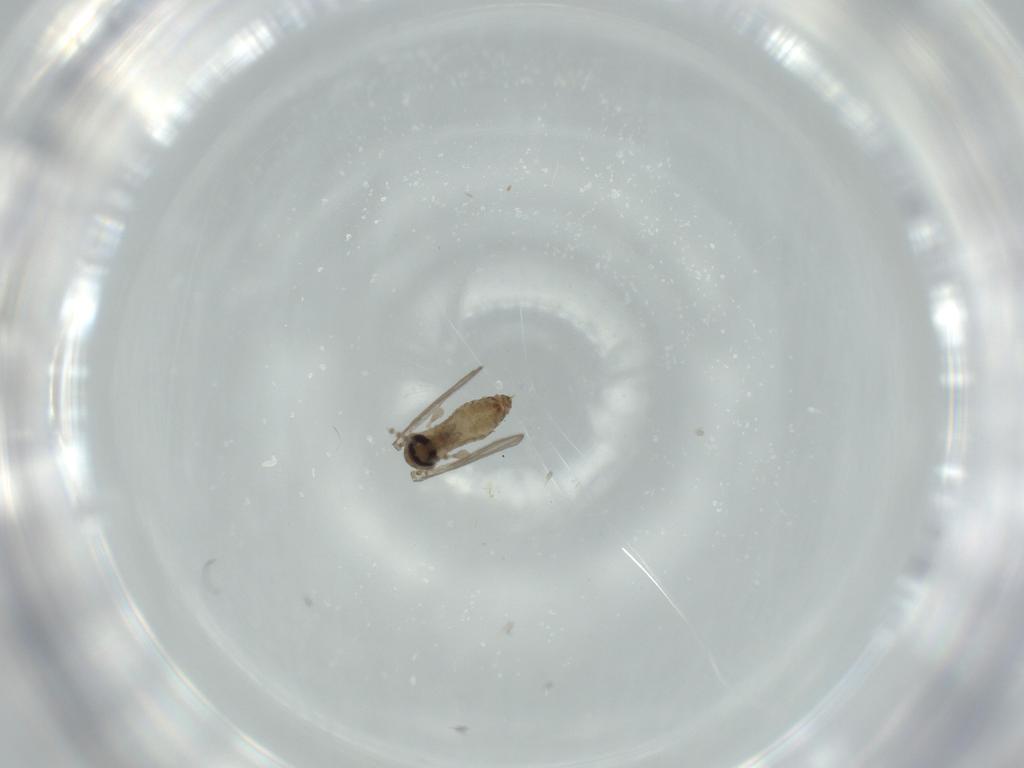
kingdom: Animalia
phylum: Arthropoda
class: Insecta
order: Diptera
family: Psychodidae
